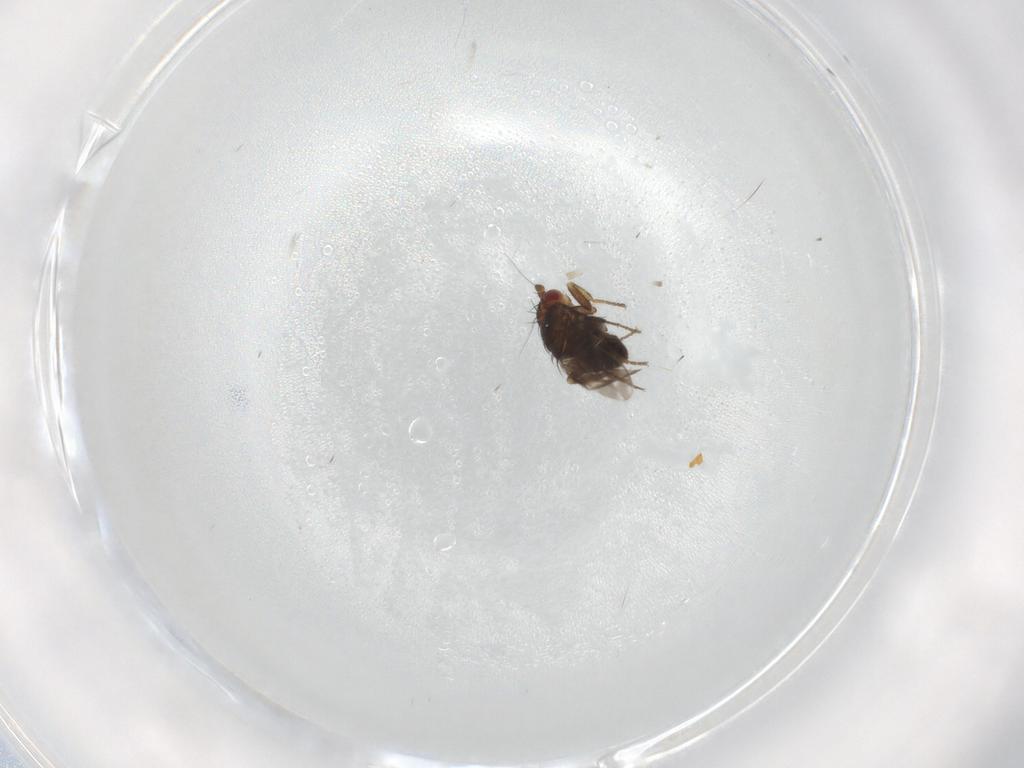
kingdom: Animalia
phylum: Arthropoda
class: Insecta
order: Diptera
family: Sphaeroceridae
